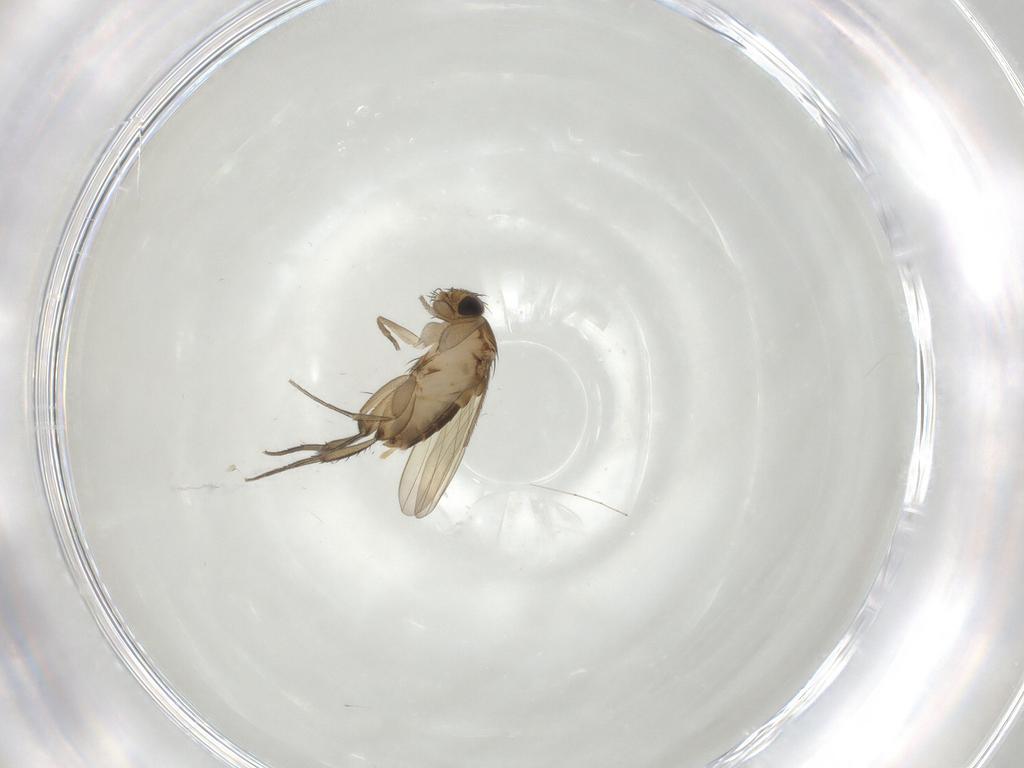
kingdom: Animalia
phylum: Arthropoda
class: Insecta
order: Diptera
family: Phoridae
